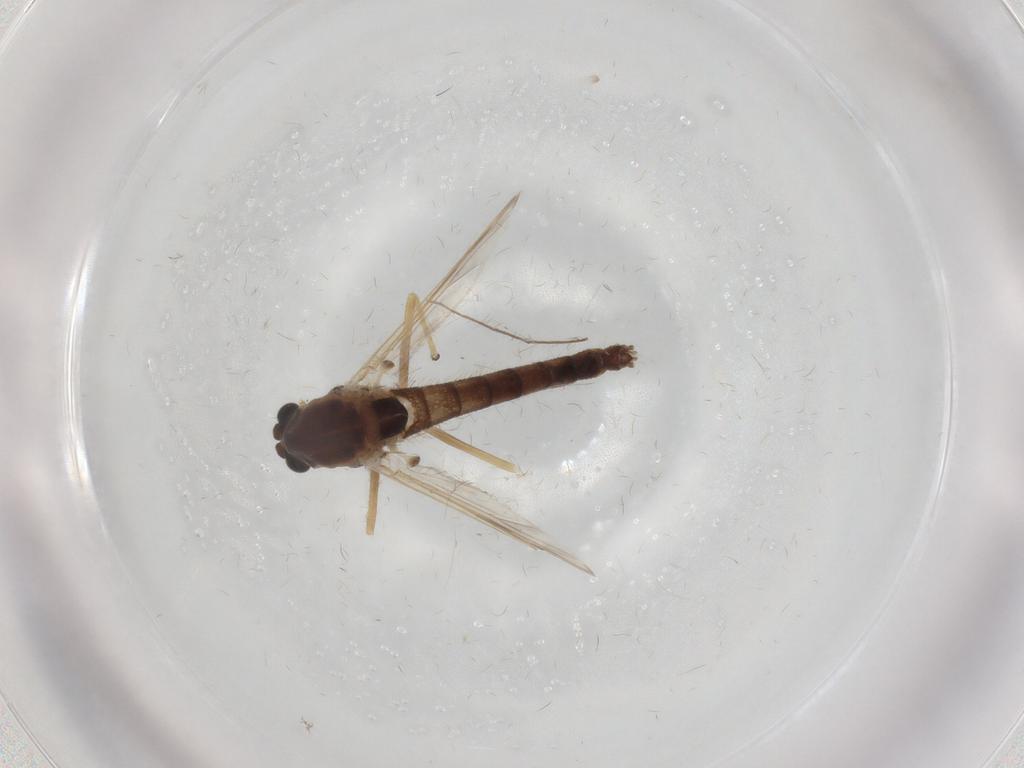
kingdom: Animalia
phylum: Arthropoda
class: Insecta
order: Diptera
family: Chironomidae
